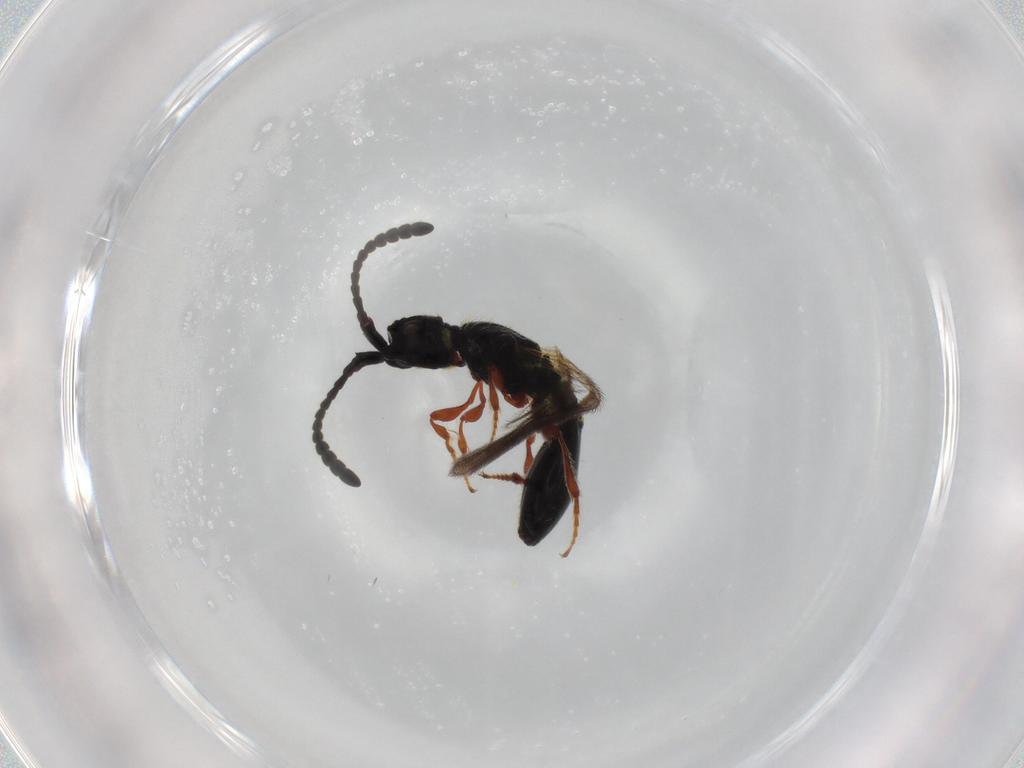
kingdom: Animalia
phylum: Arthropoda
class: Insecta
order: Hymenoptera
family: Diapriidae
